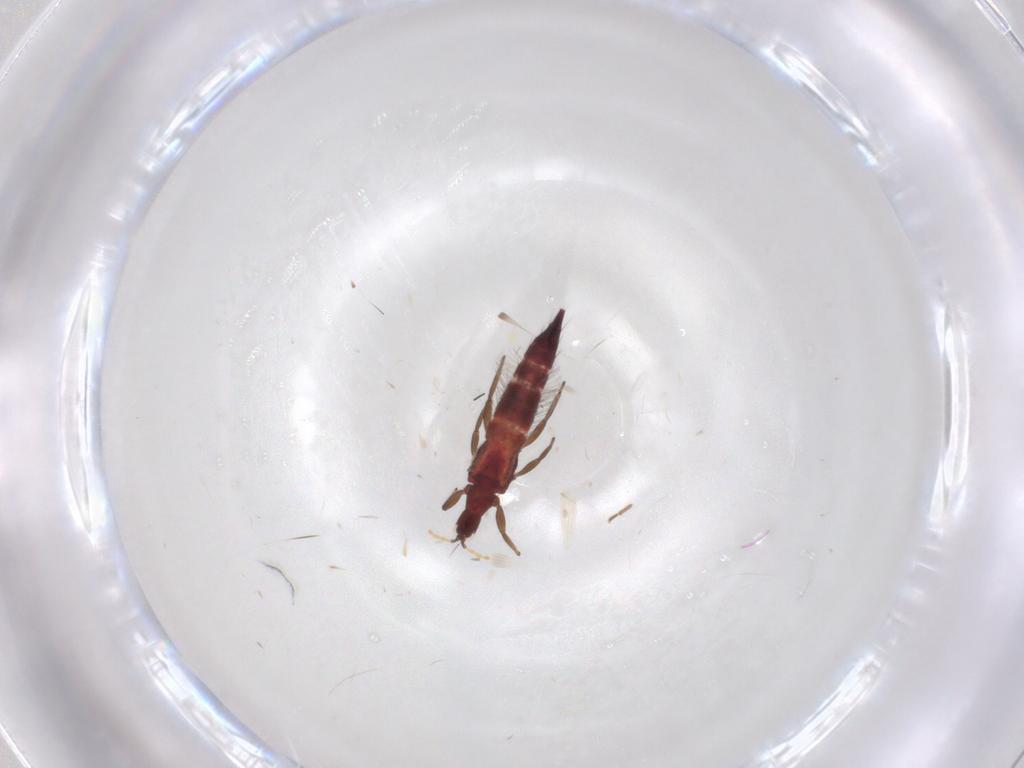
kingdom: Animalia
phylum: Arthropoda
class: Insecta
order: Thysanoptera
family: Phlaeothripidae
